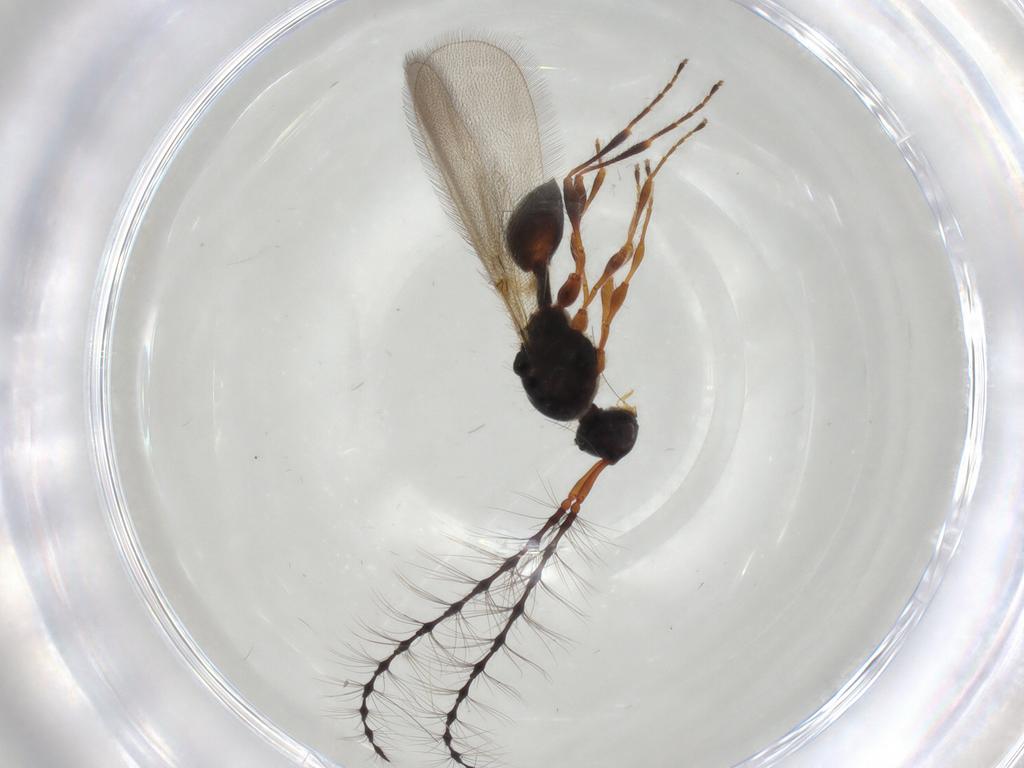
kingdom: Animalia
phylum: Arthropoda
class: Insecta
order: Hymenoptera
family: Diapriidae
